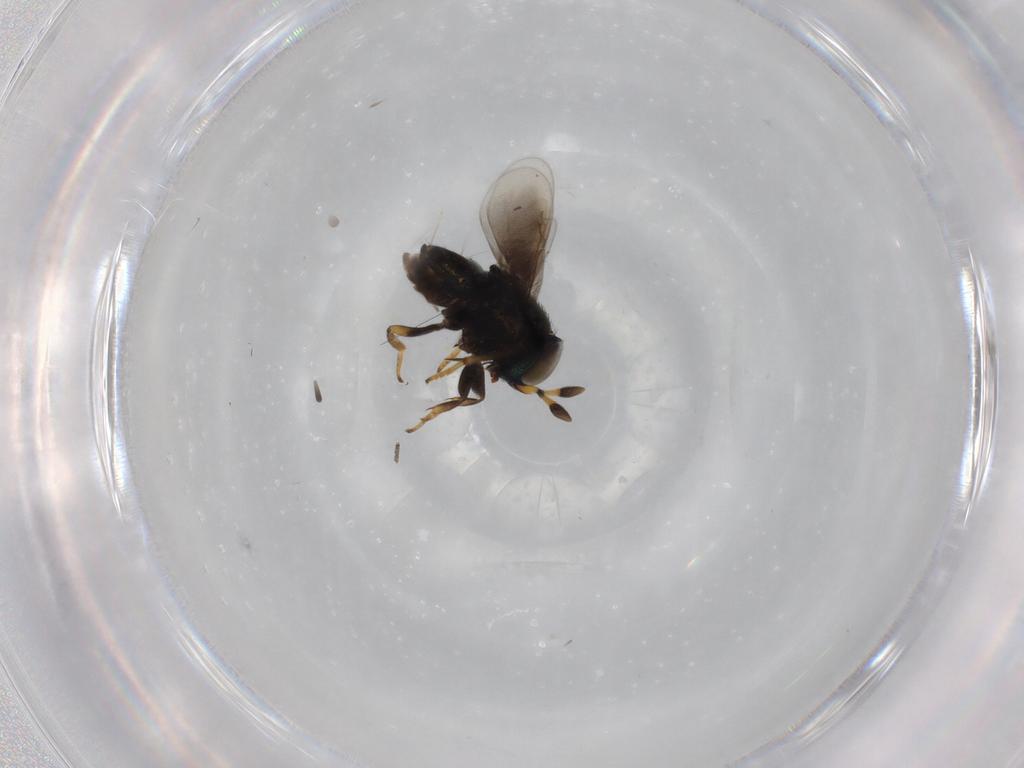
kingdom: Animalia
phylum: Arthropoda
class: Insecta
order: Hymenoptera
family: Encyrtidae
